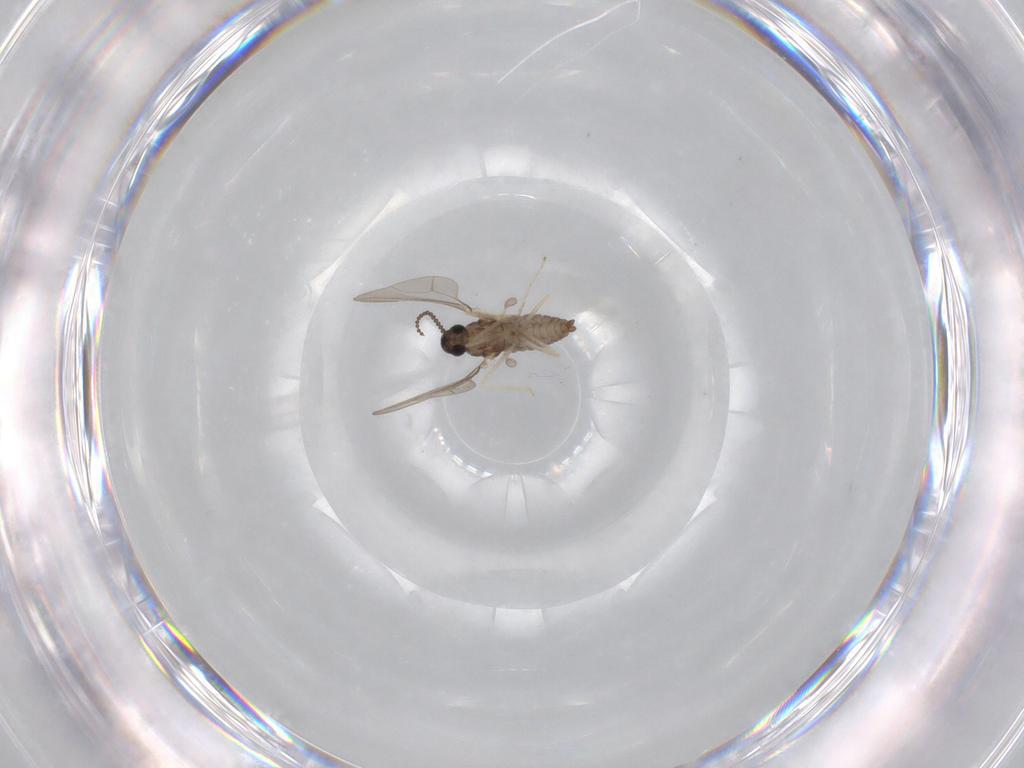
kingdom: Animalia
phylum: Arthropoda
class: Insecta
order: Diptera
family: Cecidomyiidae
